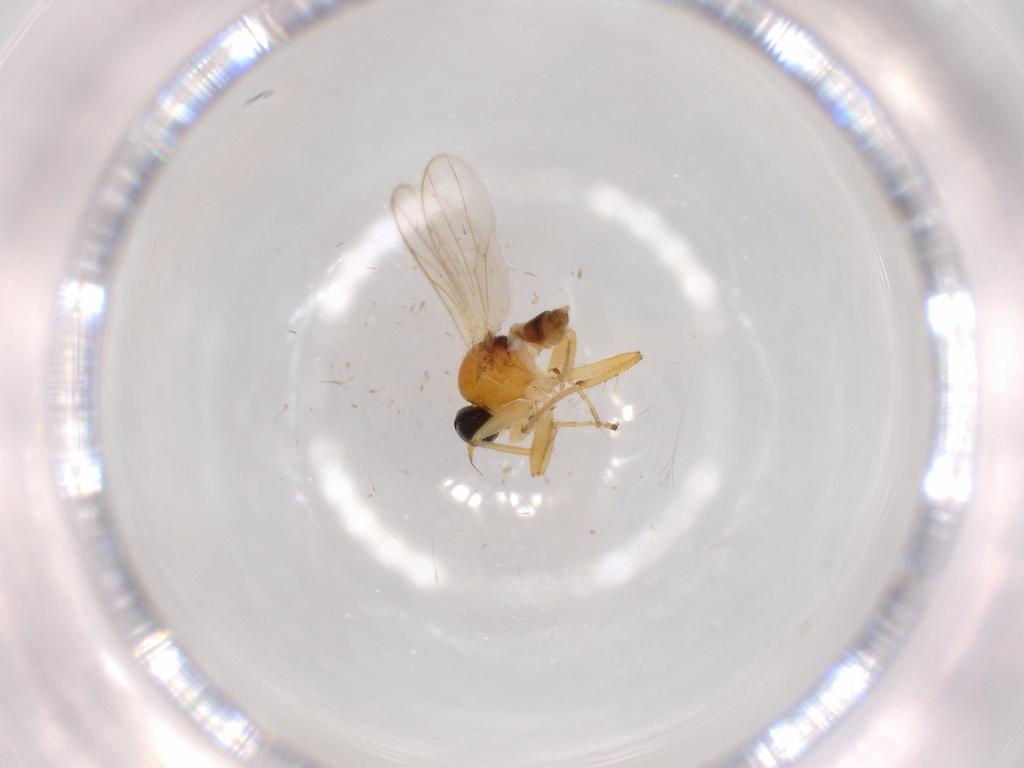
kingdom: Animalia
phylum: Arthropoda
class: Insecta
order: Diptera
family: Hybotidae
